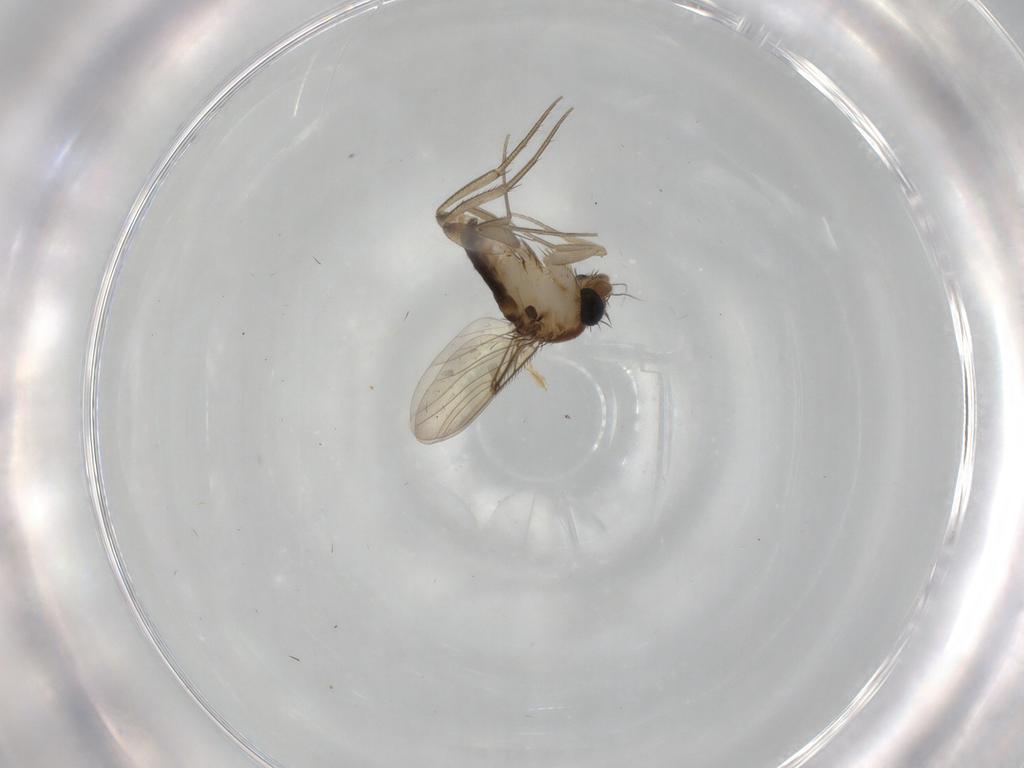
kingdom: Animalia
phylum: Arthropoda
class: Insecta
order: Diptera
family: Phoridae
